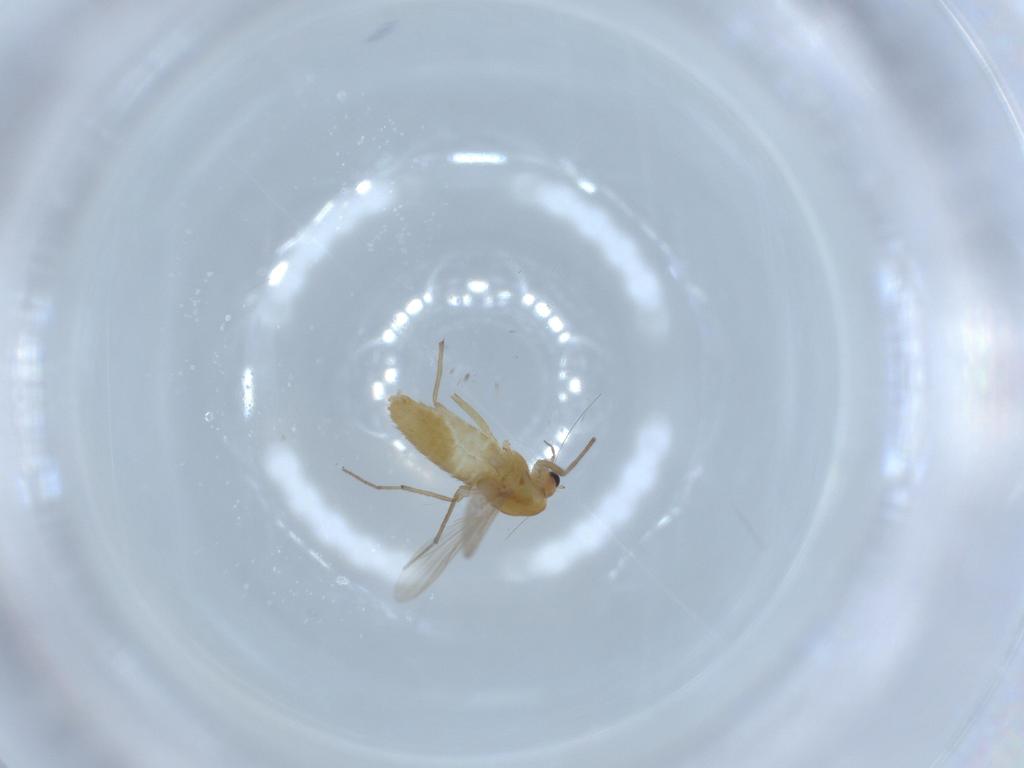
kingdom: Animalia
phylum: Arthropoda
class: Insecta
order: Diptera
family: Chironomidae
